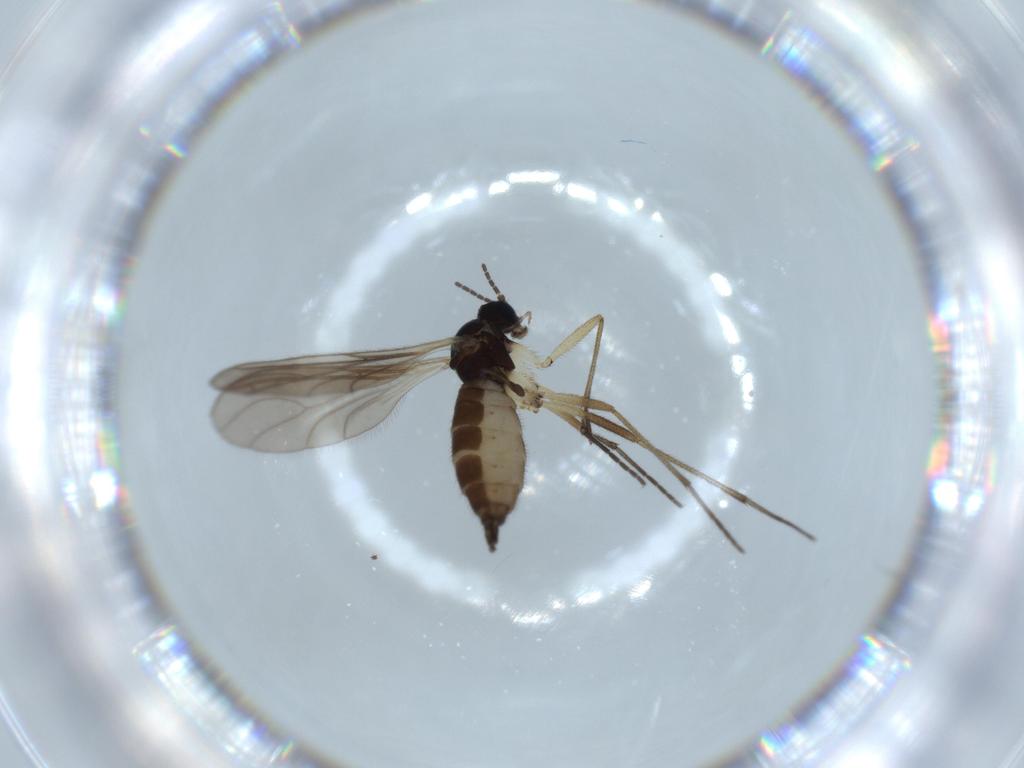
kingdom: Animalia
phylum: Arthropoda
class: Insecta
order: Diptera
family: Sciaridae
